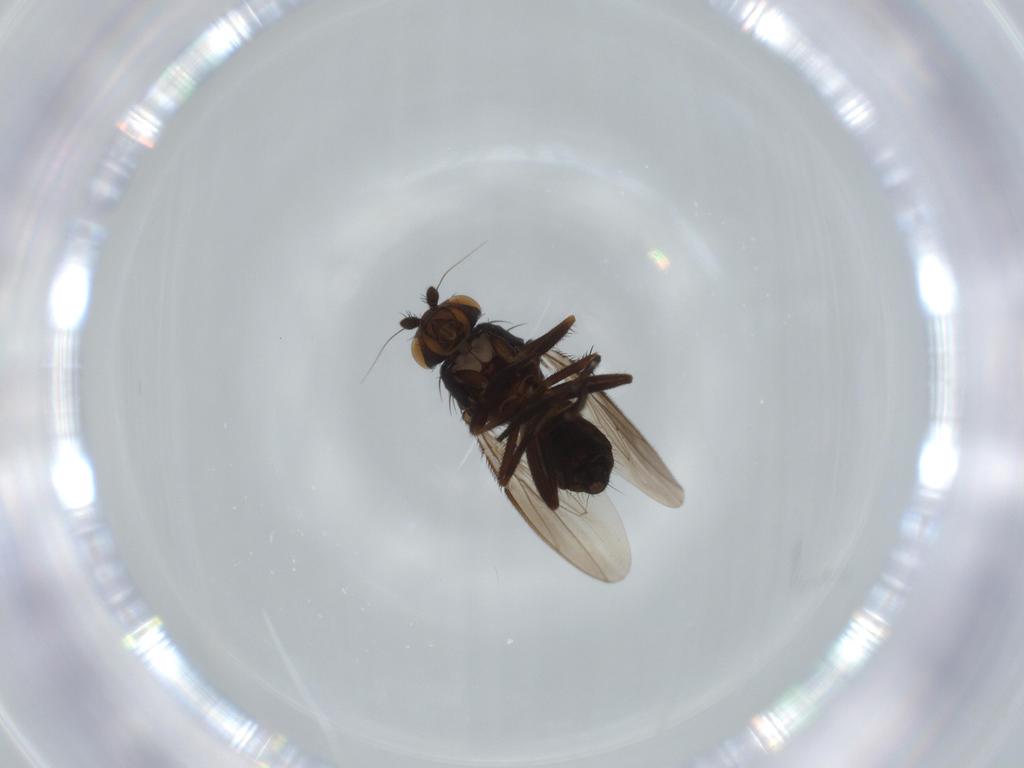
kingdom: Animalia
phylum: Arthropoda
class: Insecta
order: Diptera
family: Sphaeroceridae
